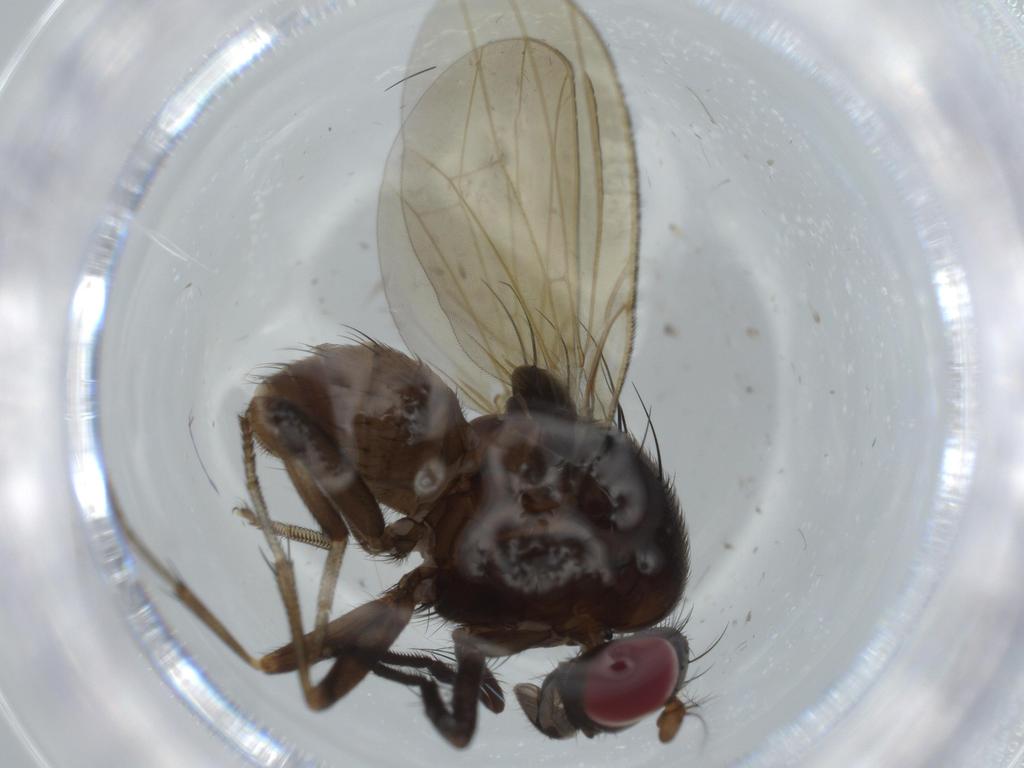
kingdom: Animalia
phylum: Arthropoda
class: Insecta
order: Diptera
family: Lauxaniidae
